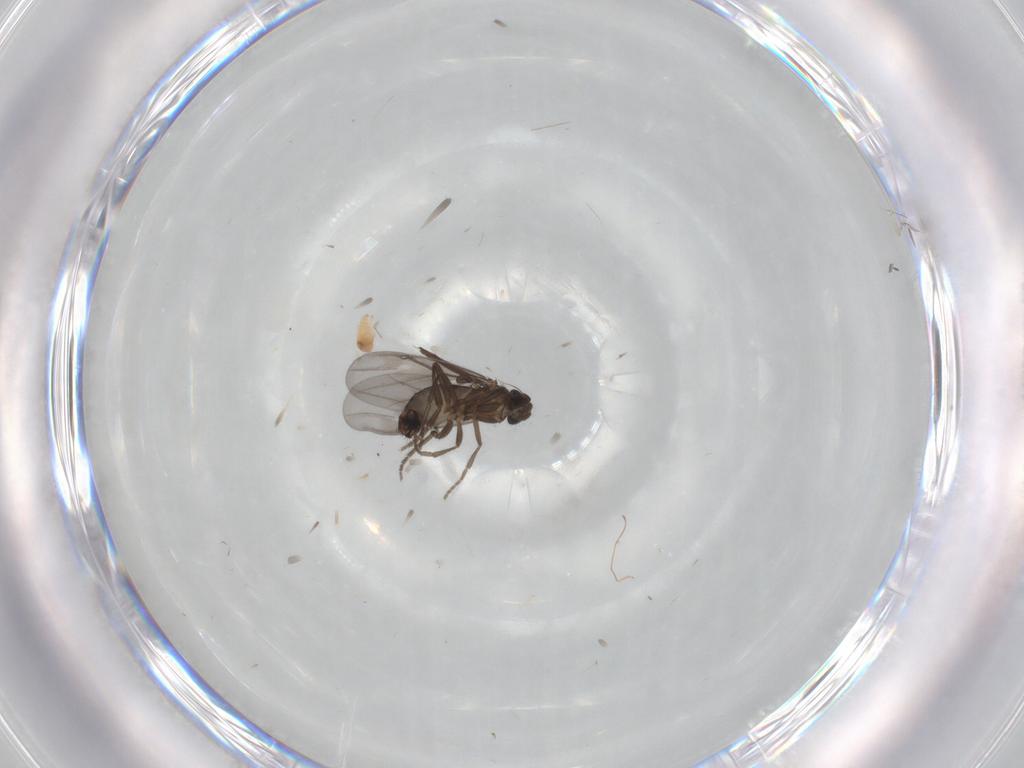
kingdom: Animalia
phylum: Arthropoda
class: Insecta
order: Diptera
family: Phoridae
